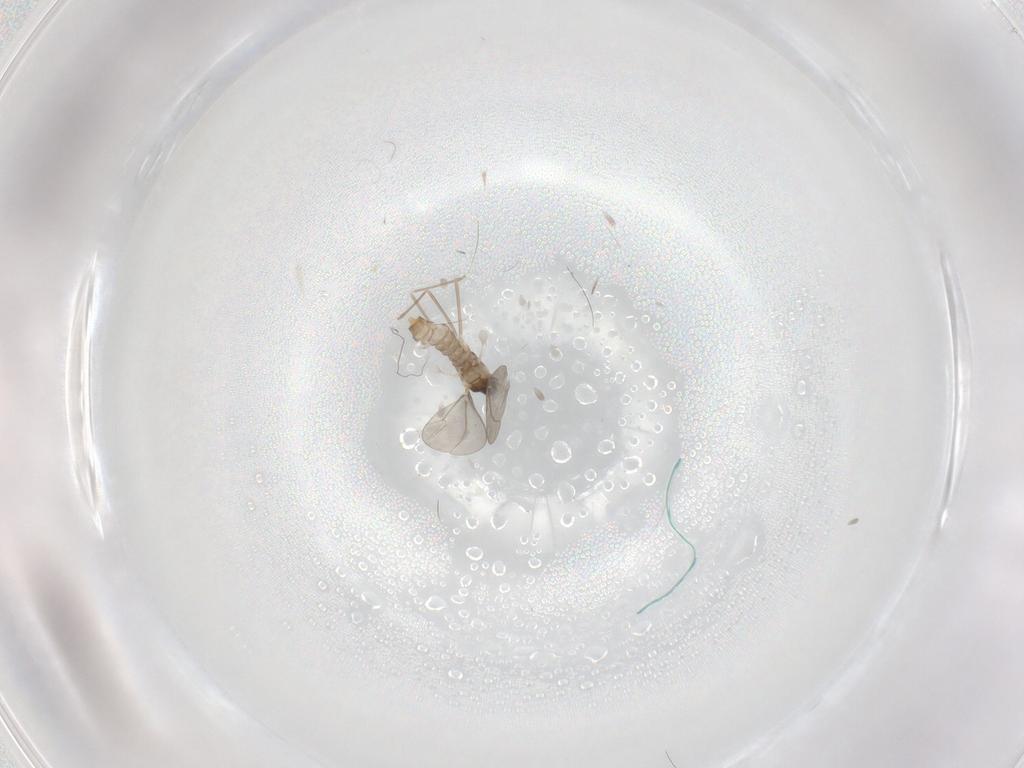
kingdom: Animalia
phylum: Arthropoda
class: Insecta
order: Diptera
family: Cecidomyiidae
